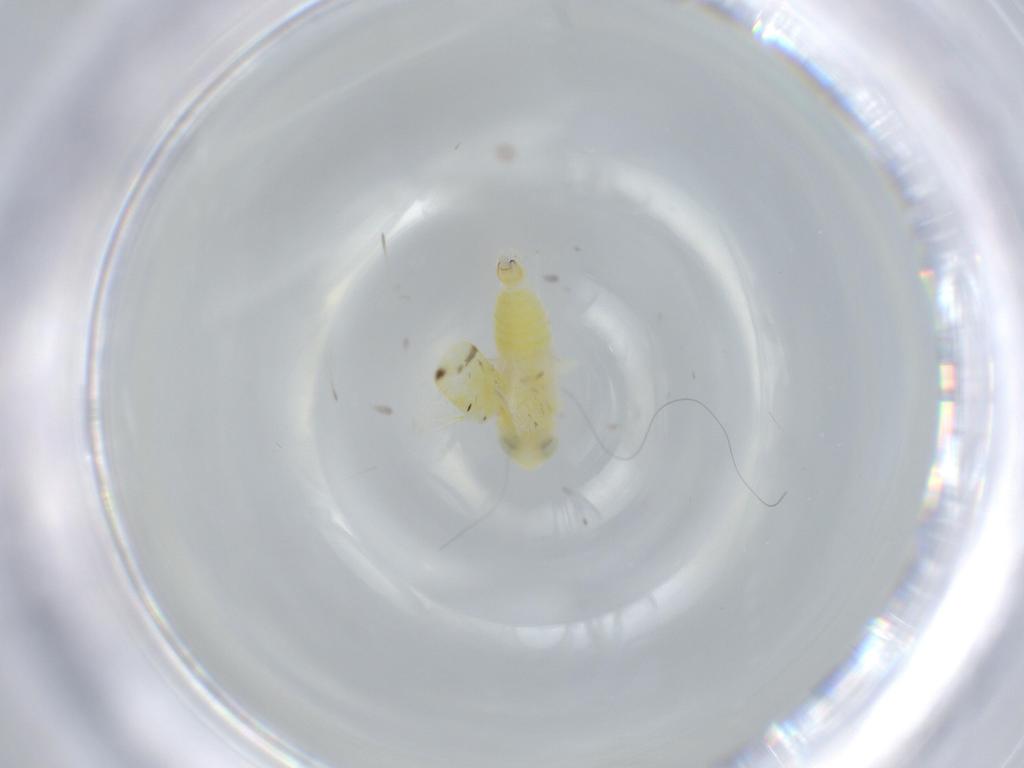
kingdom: Animalia
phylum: Arthropoda
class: Insecta
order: Hemiptera
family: Cicadellidae
